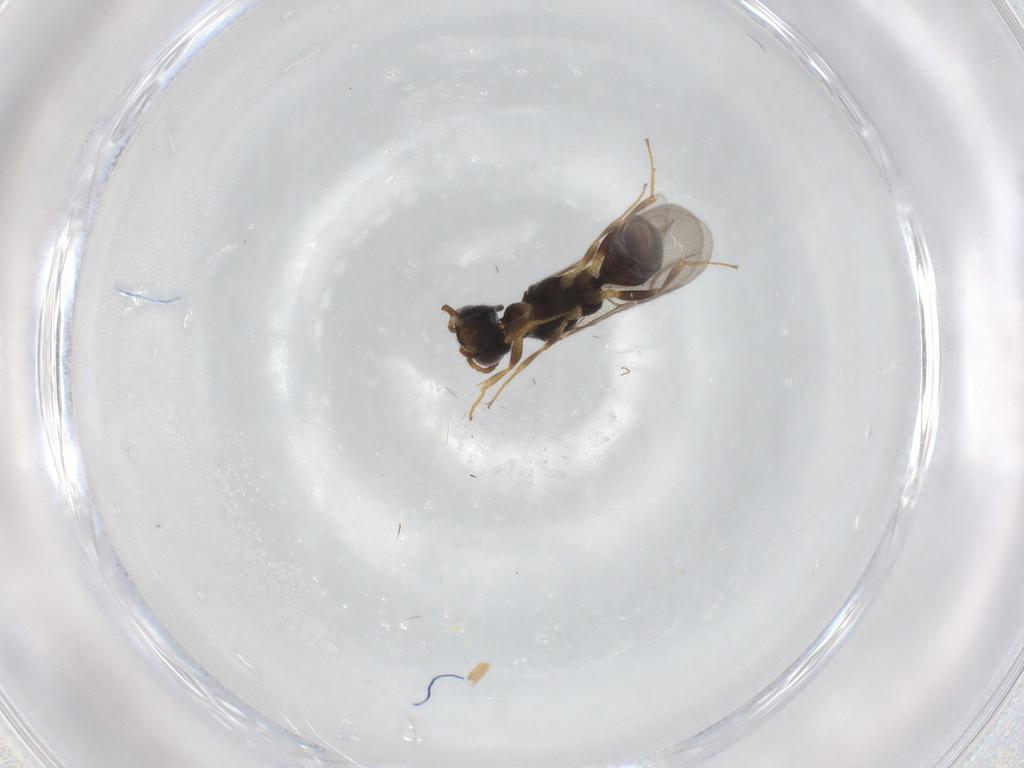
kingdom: Animalia
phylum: Arthropoda
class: Insecta
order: Hymenoptera
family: Bethylidae
